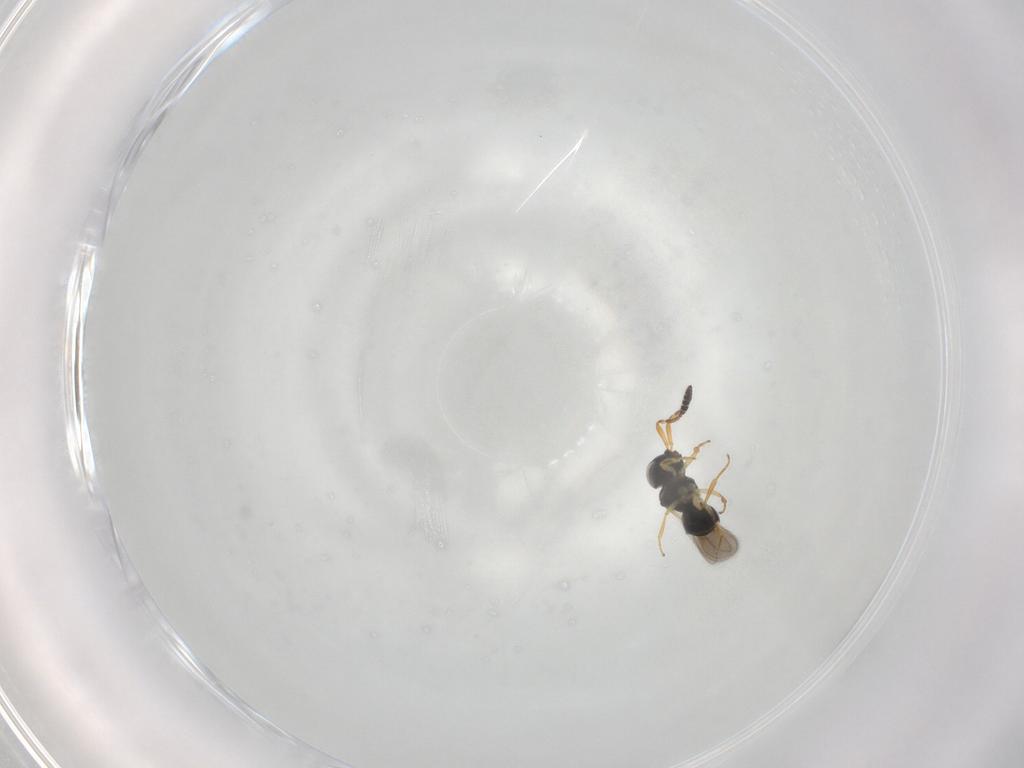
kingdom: Animalia
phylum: Arthropoda
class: Insecta
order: Hymenoptera
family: Scelionidae
